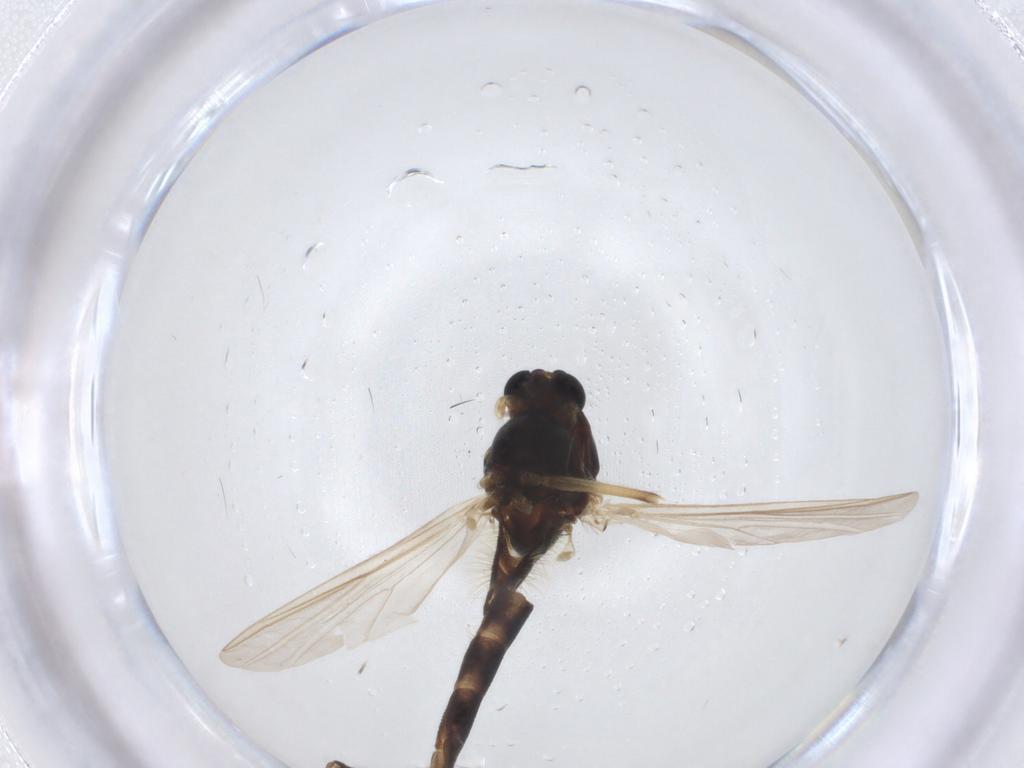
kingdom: Animalia
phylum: Arthropoda
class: Insecta
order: Diptera
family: Chironomidae
